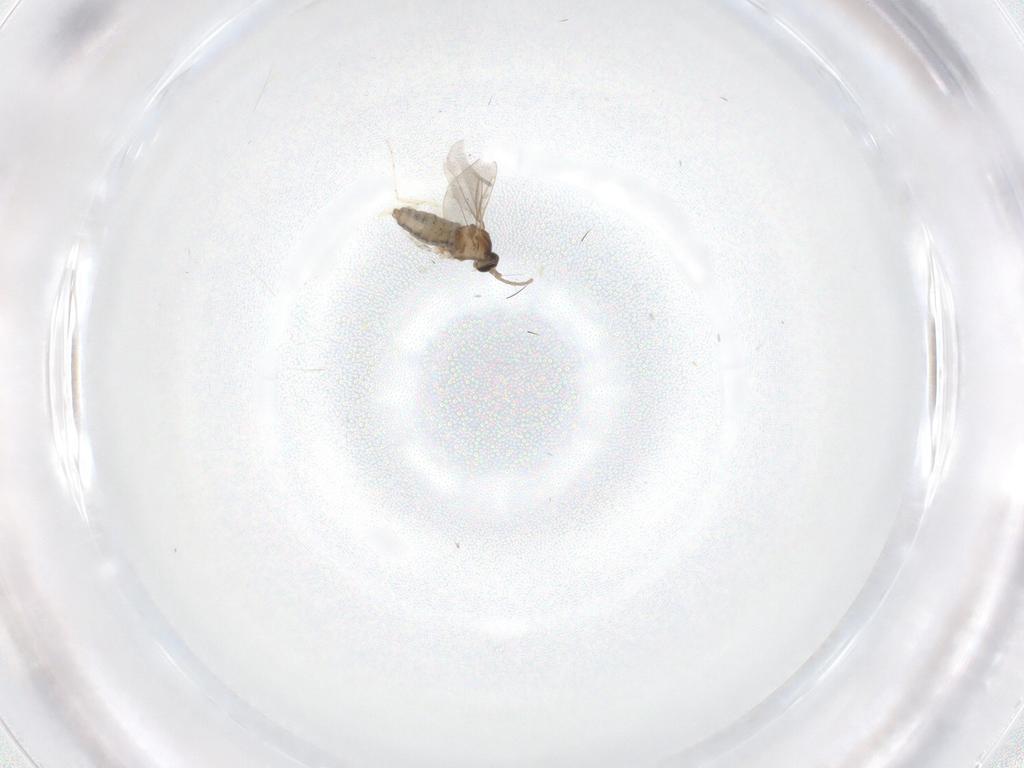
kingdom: Animalia
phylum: Arthropoda
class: Insecta
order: Diptera
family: Cecidomyiidae
